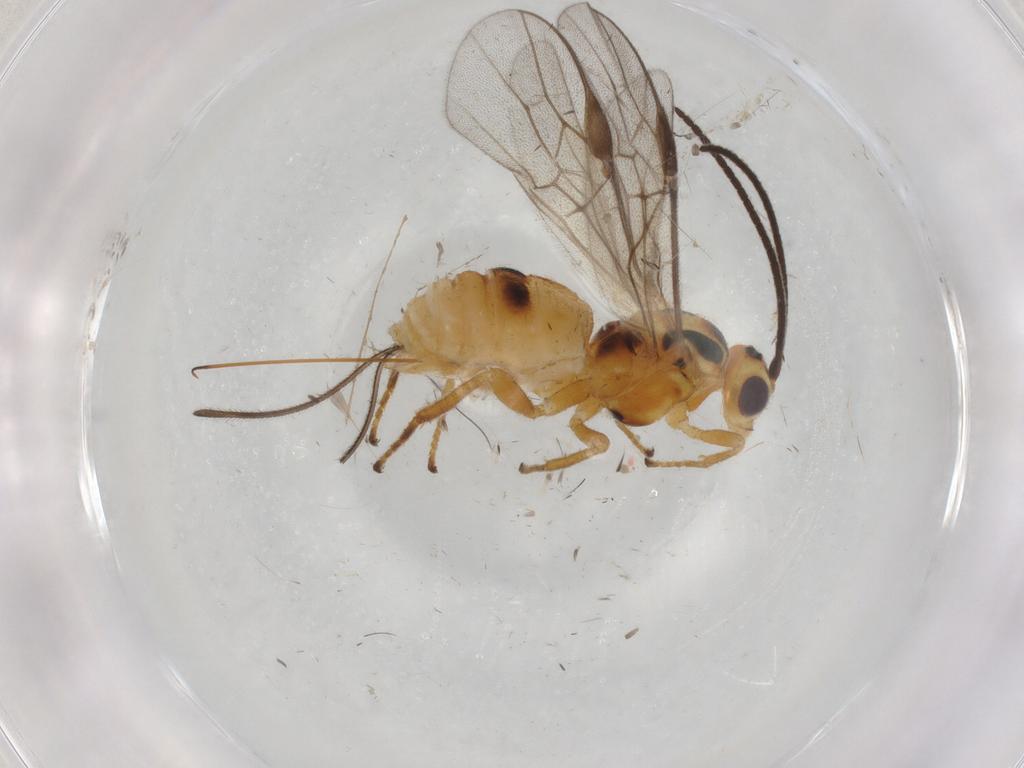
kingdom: Animalia
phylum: Arthropoda
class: Insecta
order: Hymenoptera
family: Braconidae
